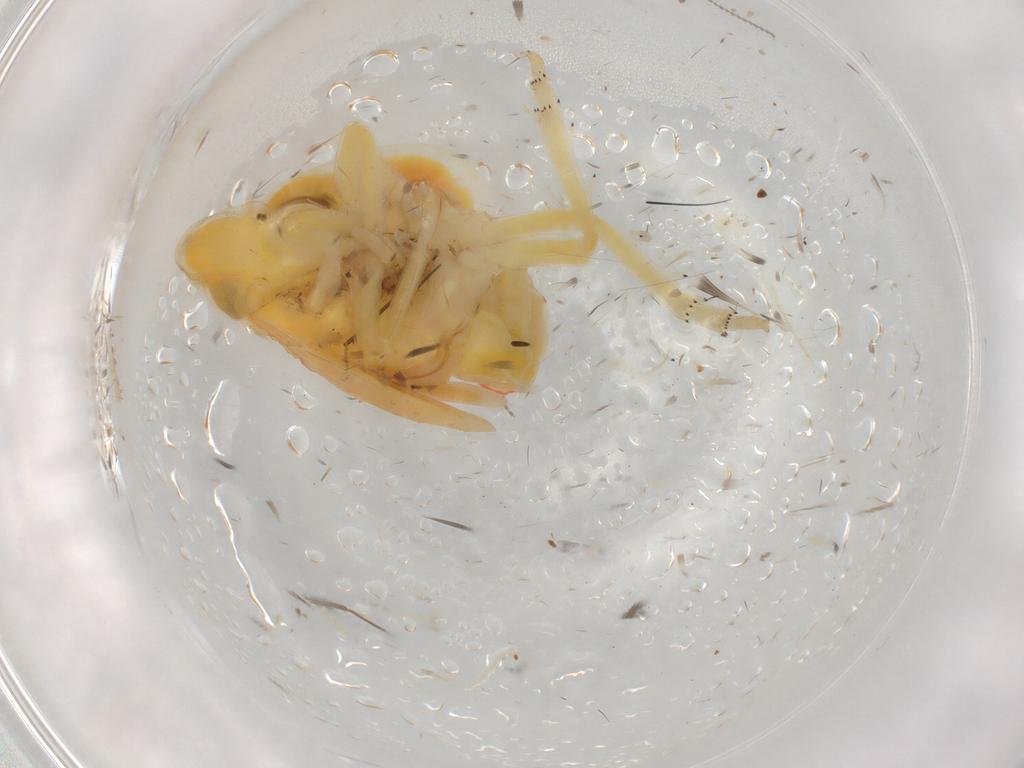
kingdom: Animalia
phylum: Arthropoda
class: Insecta
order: Hemiptera
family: Tropiduchidae
